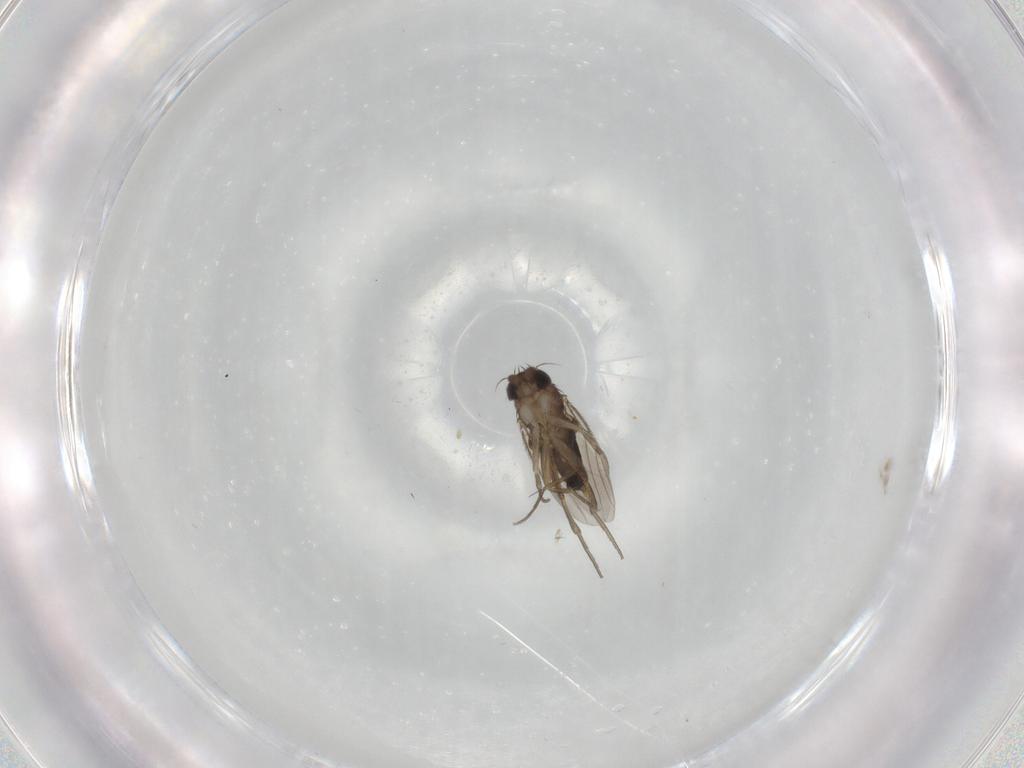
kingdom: Animalia
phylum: Arthropoda
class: Insecta
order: Diptera
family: Phoridae
